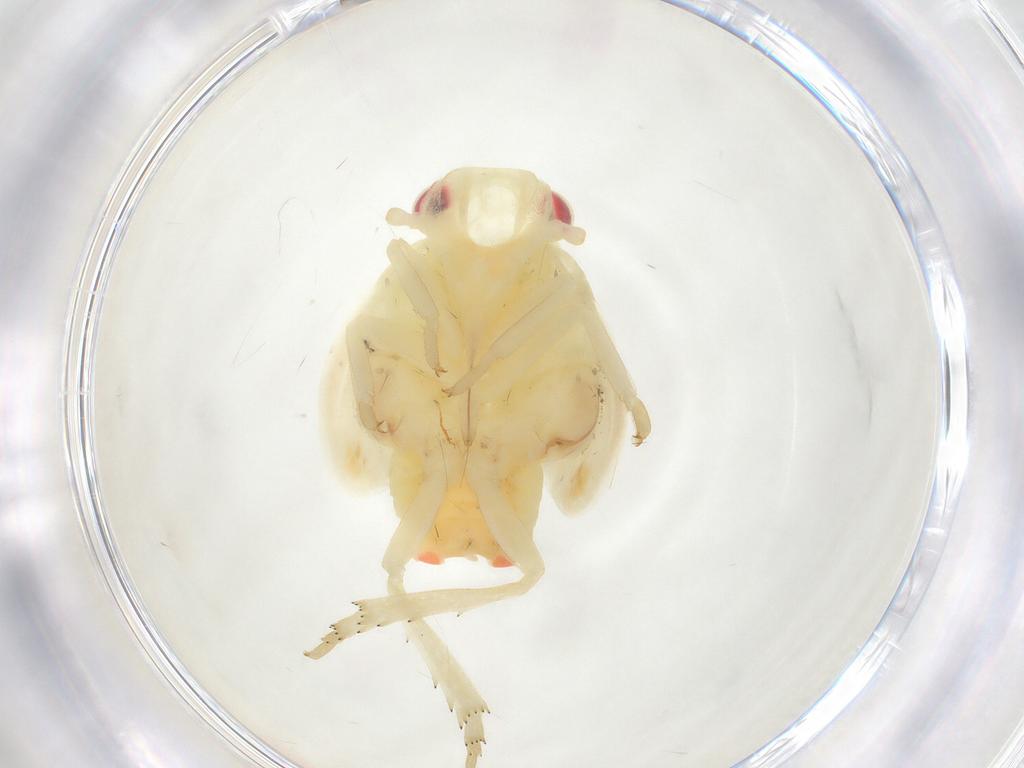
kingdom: Animalia
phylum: Arthropoda
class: Insecta
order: Hemiptera
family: Flatidae
